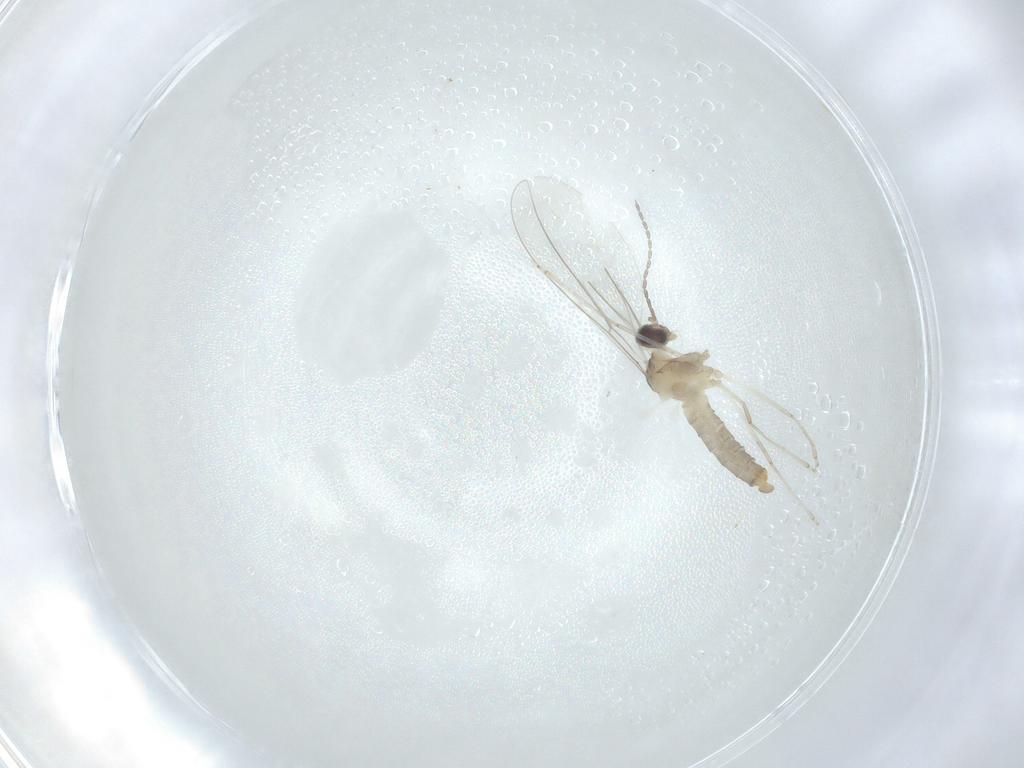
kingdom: Animalia
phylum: Arthropoda
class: Insecta
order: Diptera
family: Cecidomyiidae
